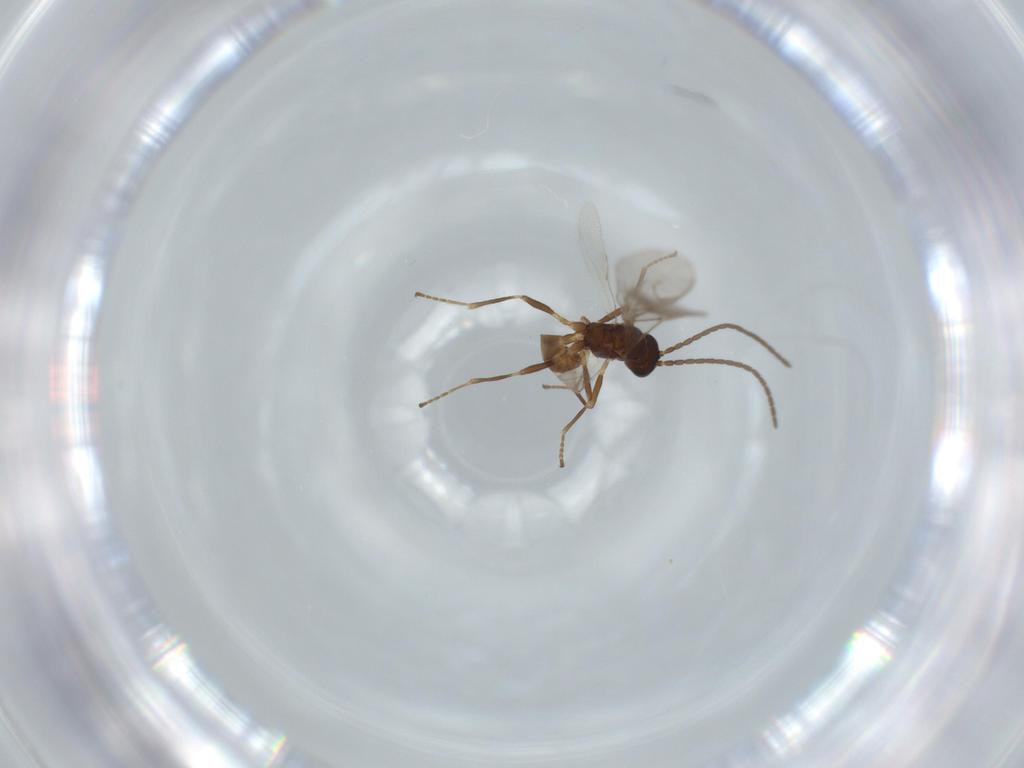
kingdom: Animalia
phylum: Arthropoda
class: Insecta
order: Hymenoptera
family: Braconidae
